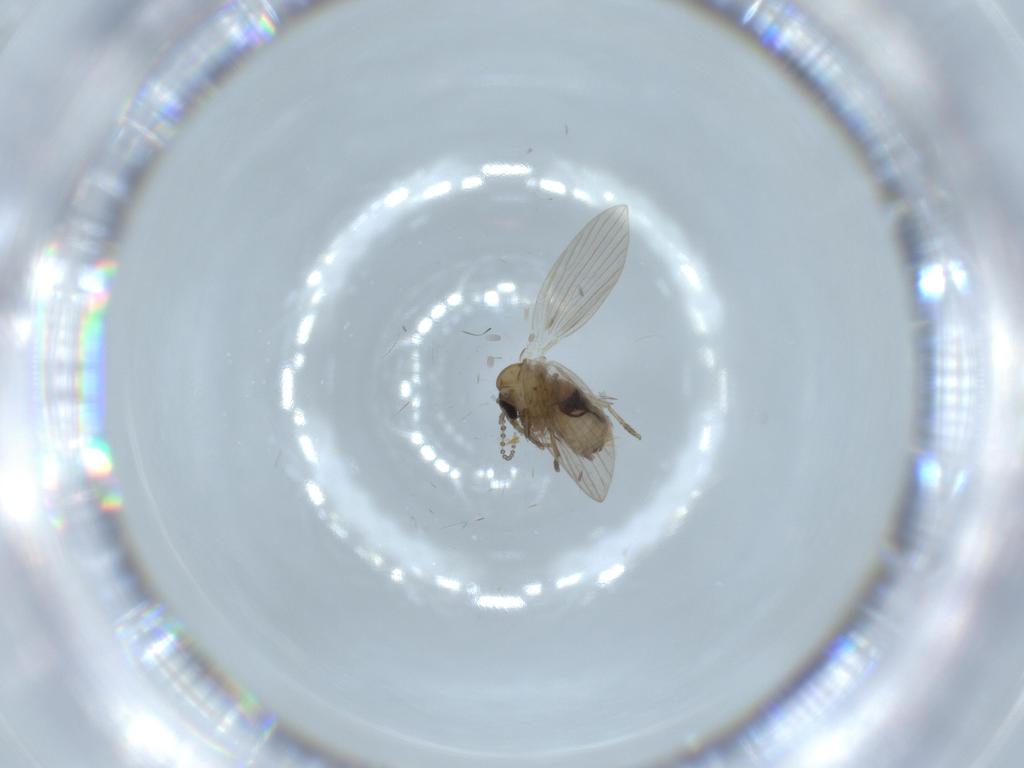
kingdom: Animalia
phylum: Arthropoda
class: Insecta
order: Diptera
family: Psychodidae
